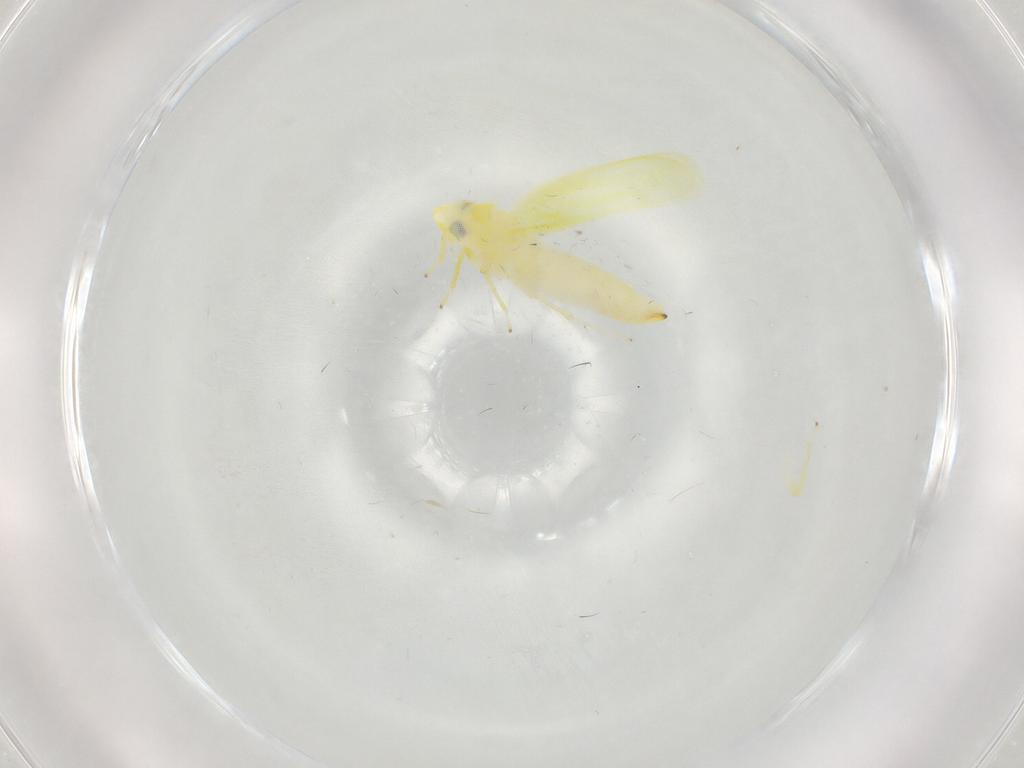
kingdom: Animalia
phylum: Arthropoda
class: Insecta
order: Hemiptera
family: Cicadellidae
